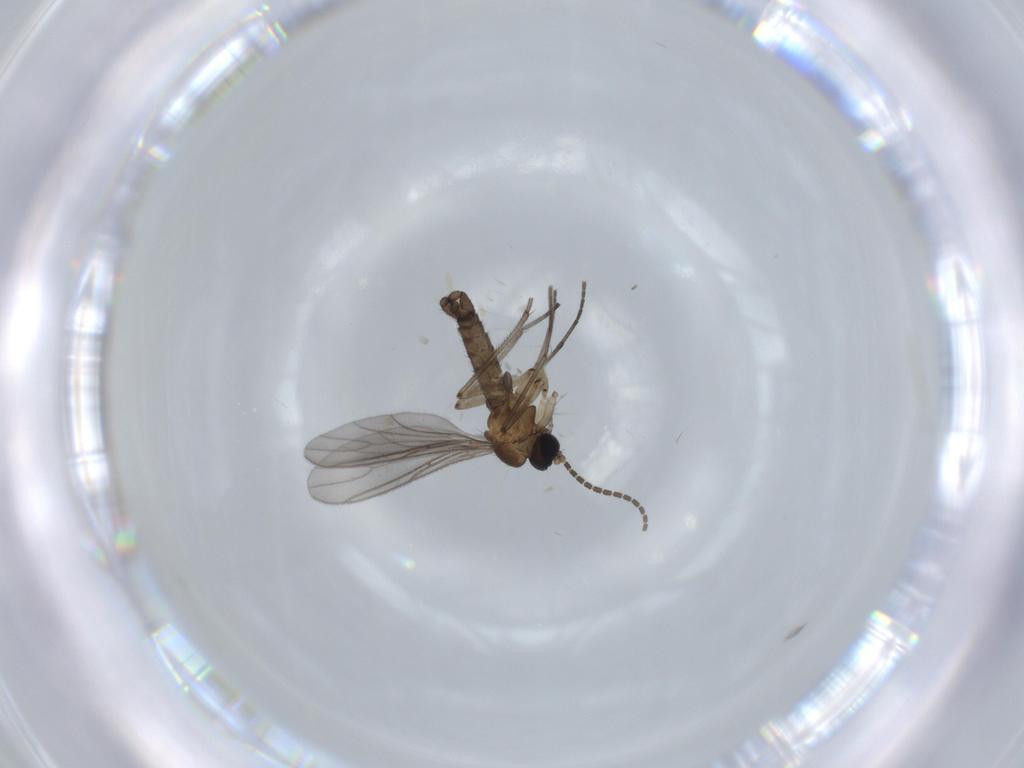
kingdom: Animalia
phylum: Arthropoda
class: Insecta
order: Diptera
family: Sciaridae
